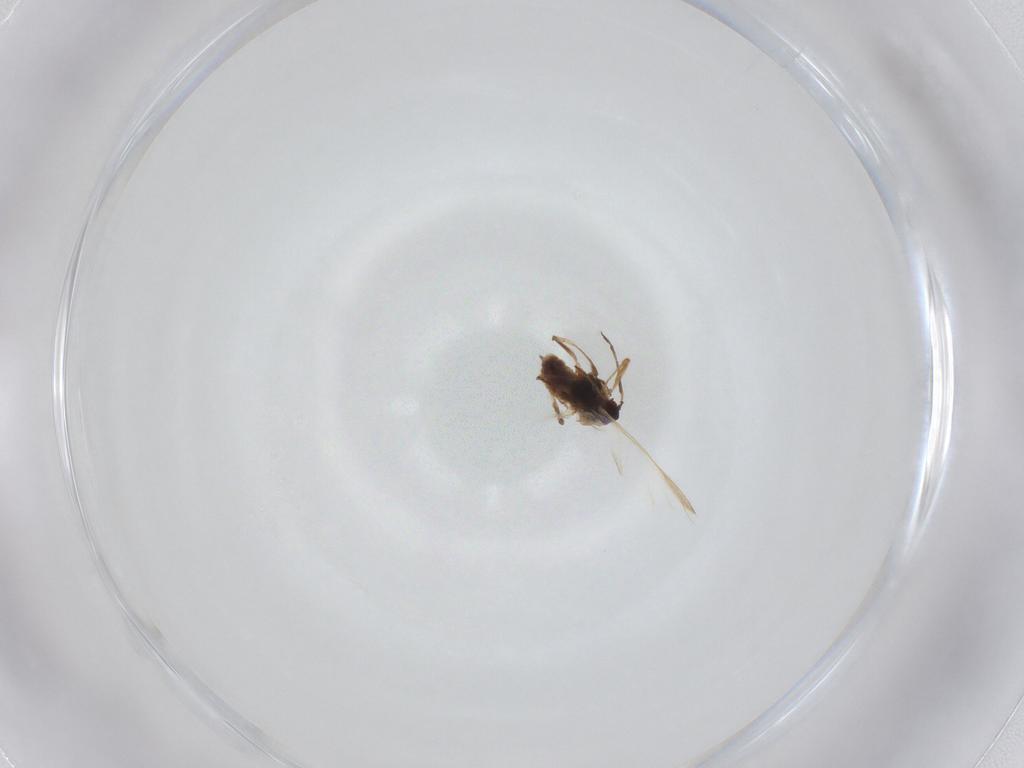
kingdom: Animalia
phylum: Arthropoda
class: Insecta
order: Hemiptera
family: Aphididae
